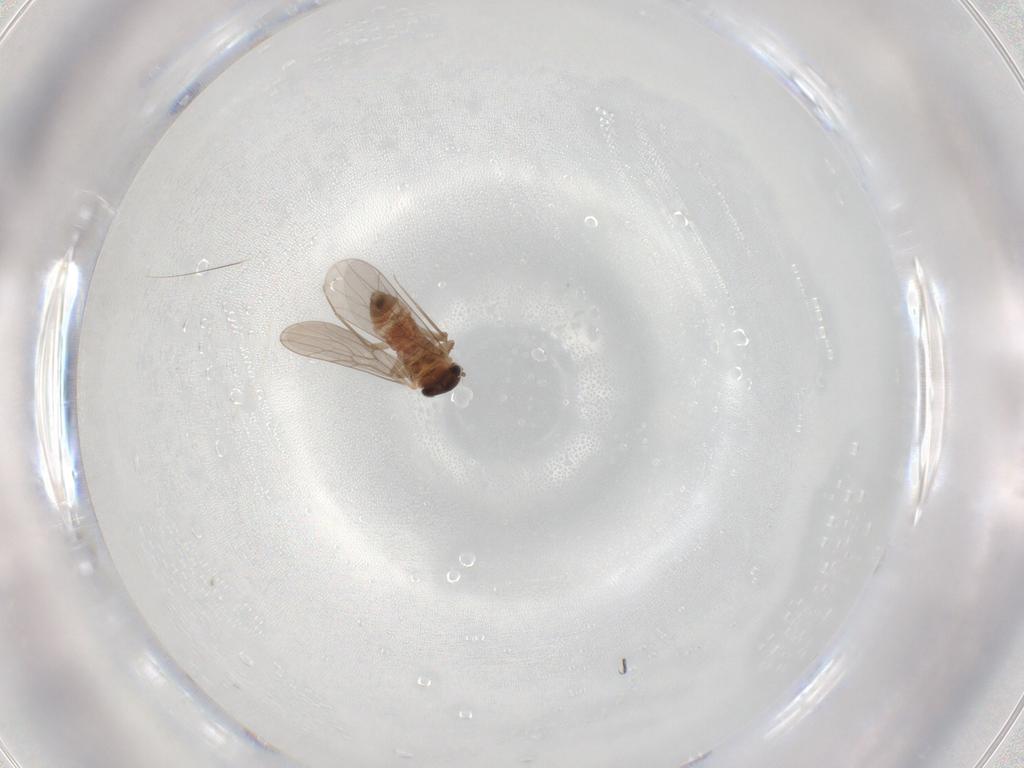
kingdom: Animalia
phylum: Arthropoda
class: Insecta
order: Psocodea
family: Lepidopsocidae
